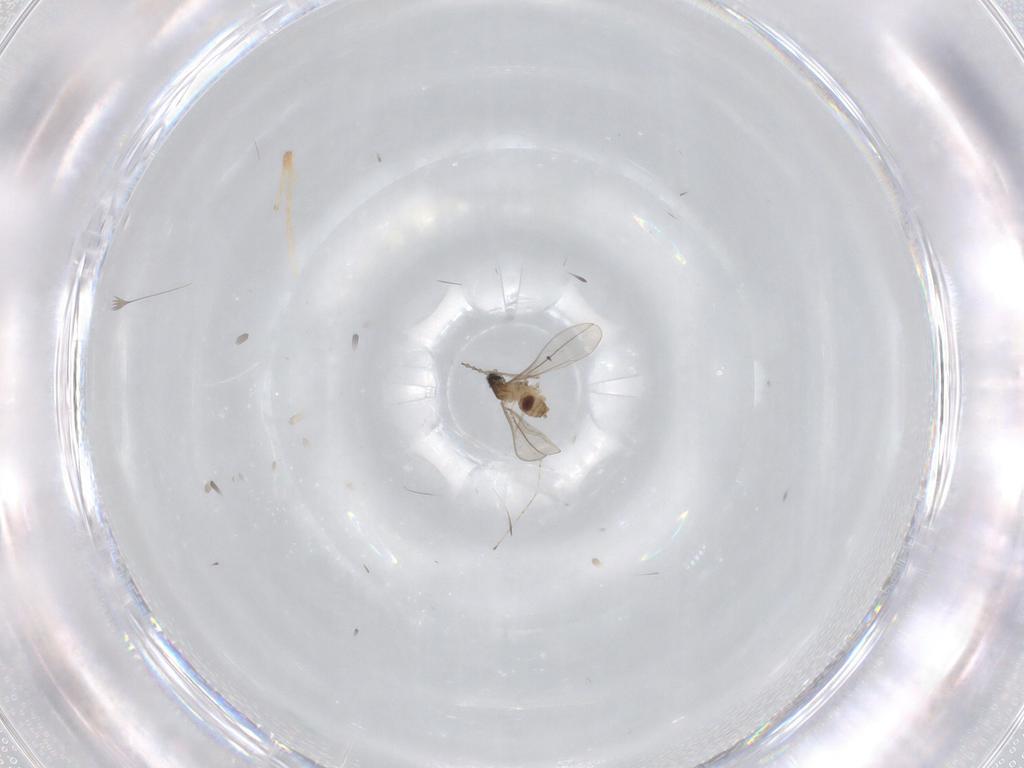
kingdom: Animalia
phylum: Arthropoda
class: Insecta
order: Diptera
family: Cecidomyiidae
